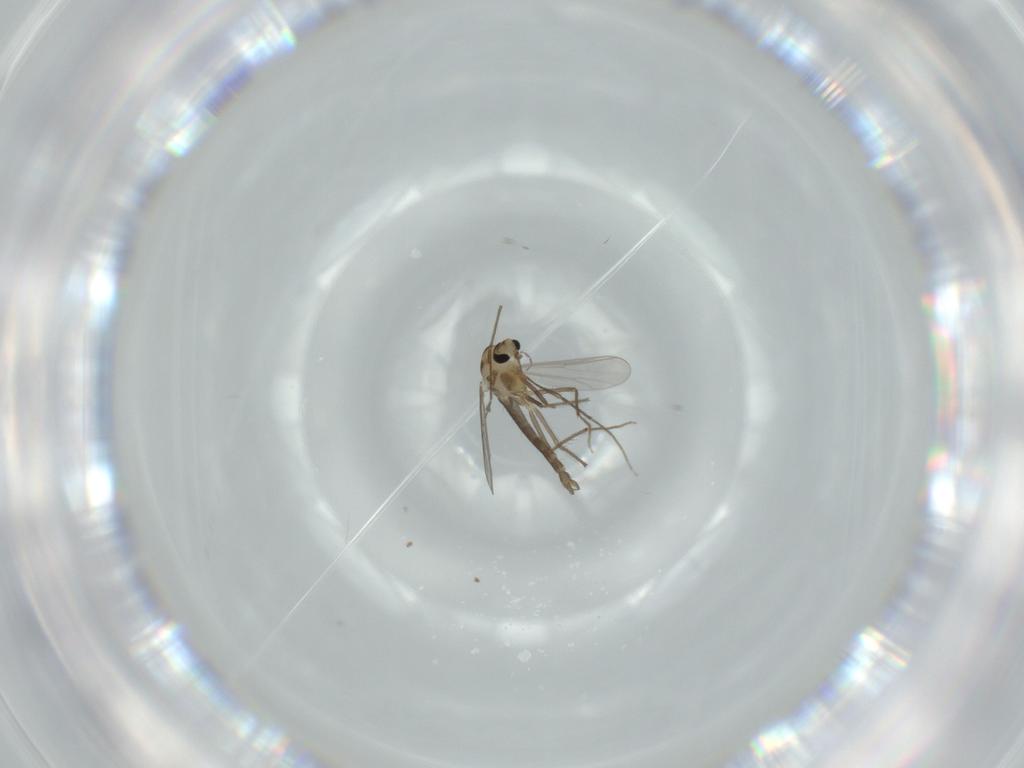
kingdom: Animalia
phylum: Arthropoda
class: Insecta
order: Diptera
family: Chironomidae
